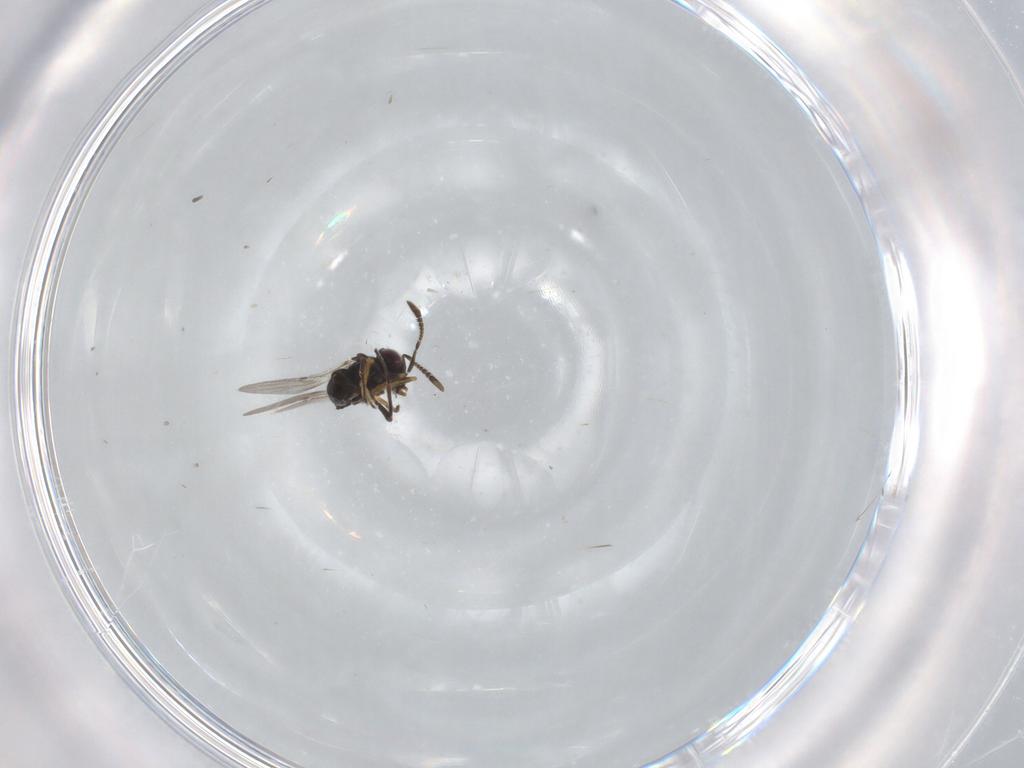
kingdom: Animalia
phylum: Arthropoda
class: Insecta
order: Hymenoptera
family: Encyrtidae
